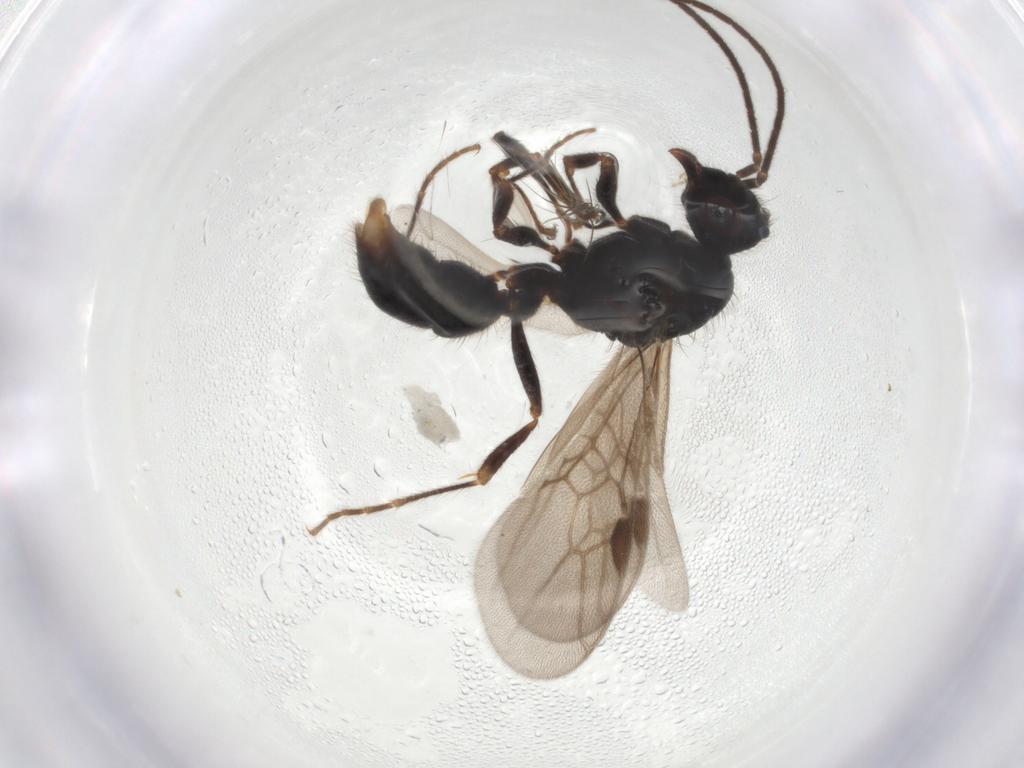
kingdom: Animalia
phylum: Arthropoda
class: Insecta
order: Hymenoptera
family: Formicidae
